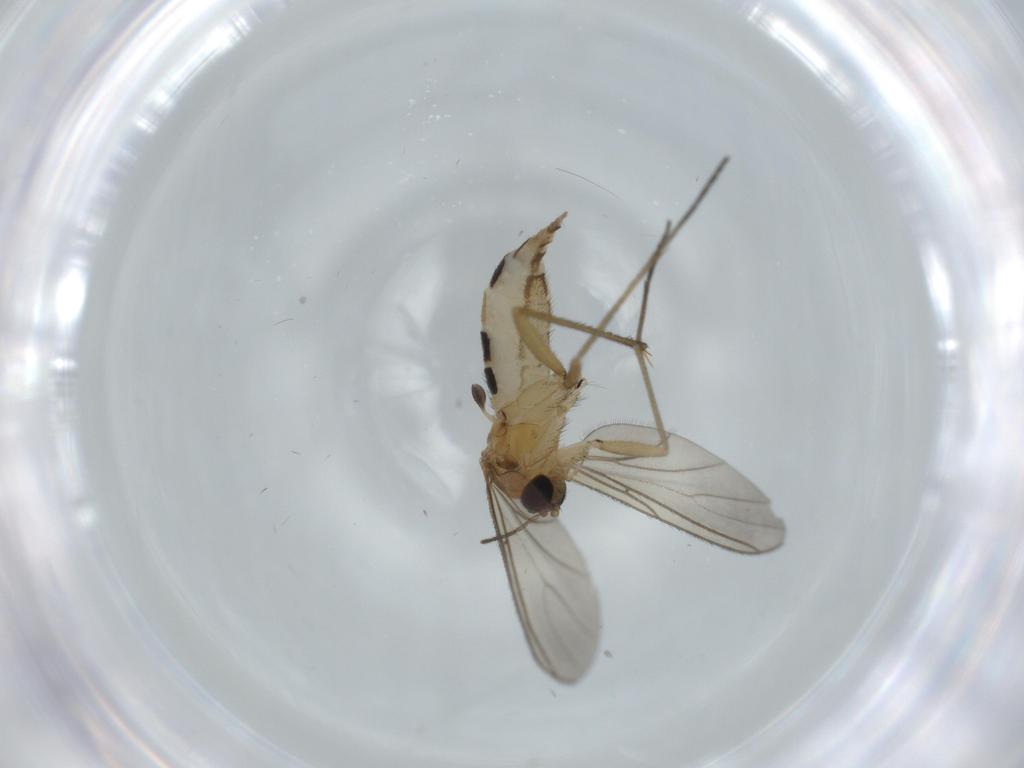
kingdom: Animalia
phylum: Arthropoda
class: Insecta
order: Diptera
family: Sciaridae
